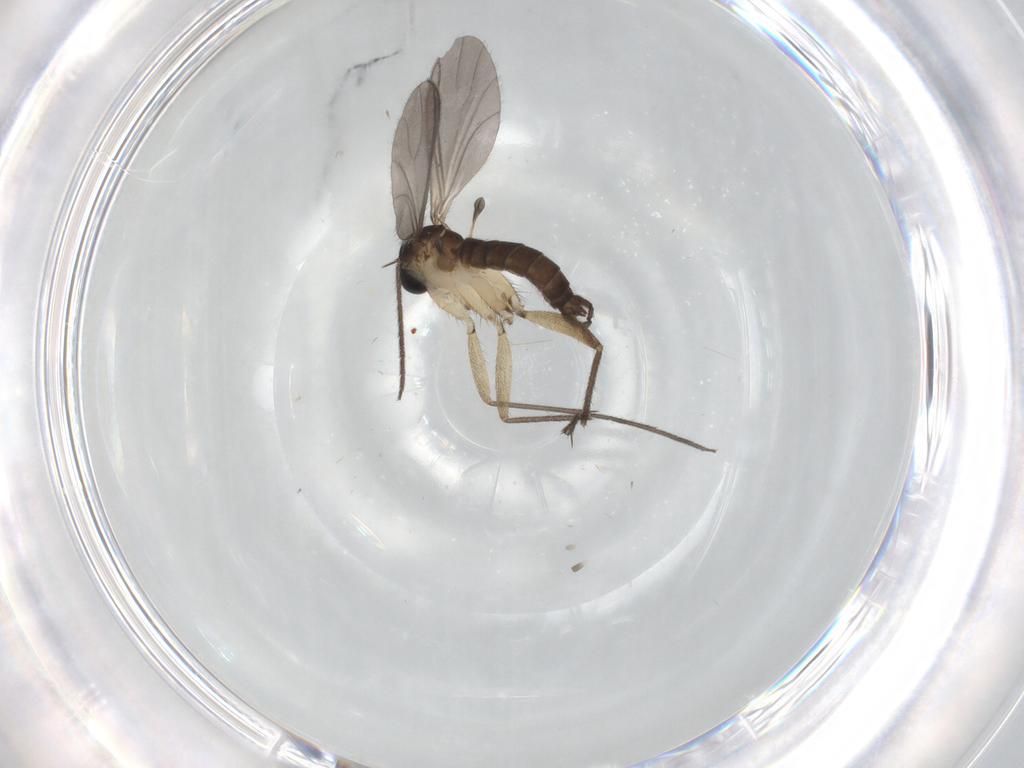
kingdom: Animalia
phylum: Arthropoda
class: Insecta
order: Diptera
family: Sciaridae
